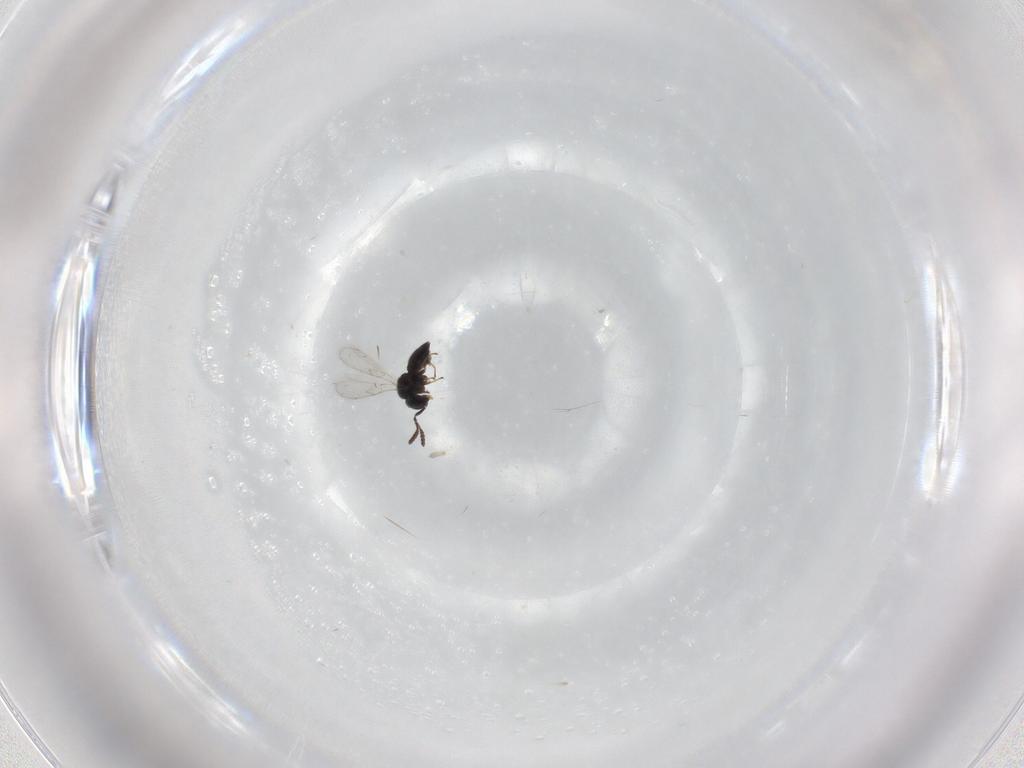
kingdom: Animalia
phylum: Arthropoda
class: Insecta
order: Hymenoptera
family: Scelionidae
